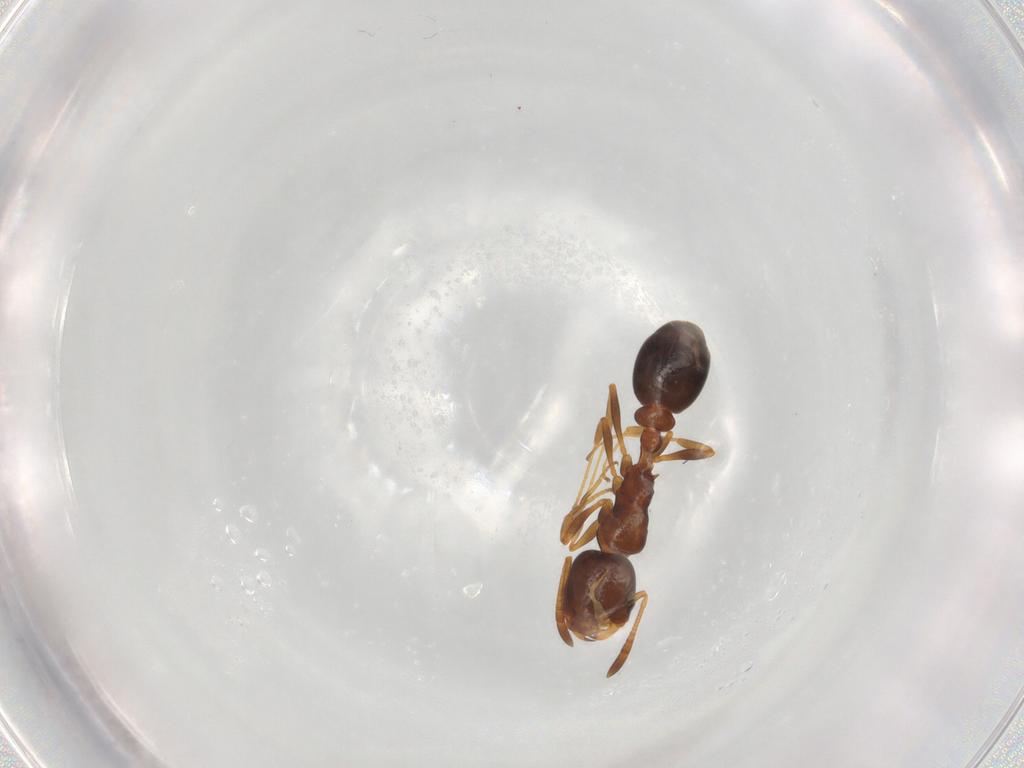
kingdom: Animalia
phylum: Arthropoda
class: Insecta
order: Hymenoptera
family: Formicidae
